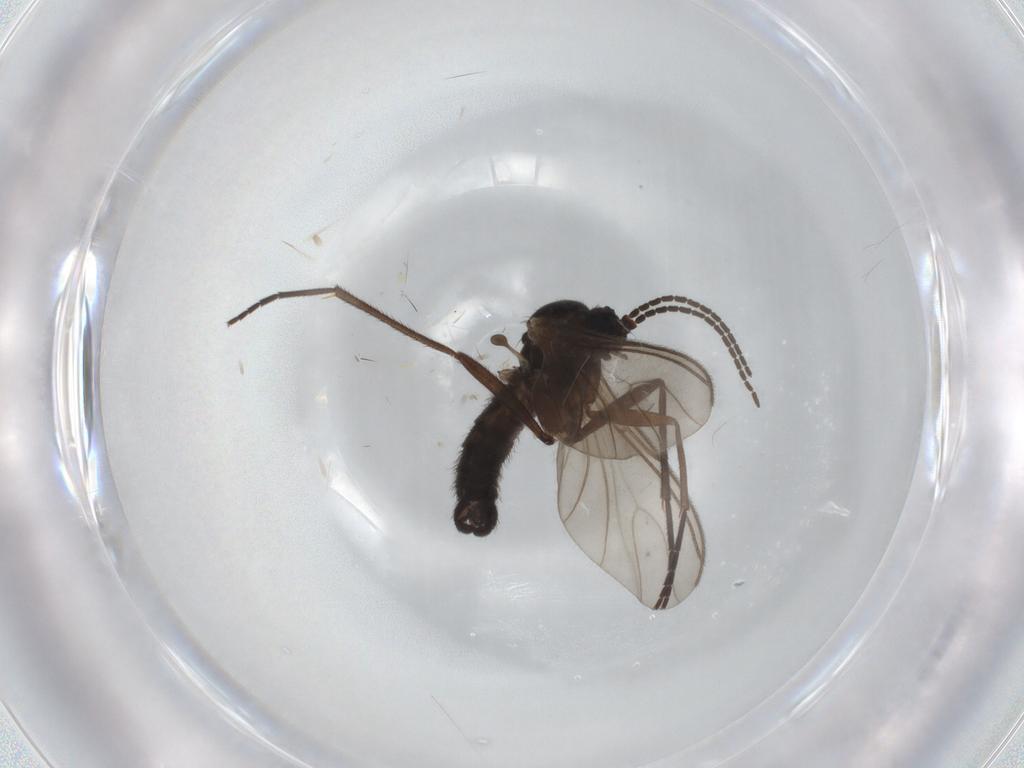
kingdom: Animalia
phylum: Arthropoda
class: Insecta
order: Diptera
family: Sciaridae
